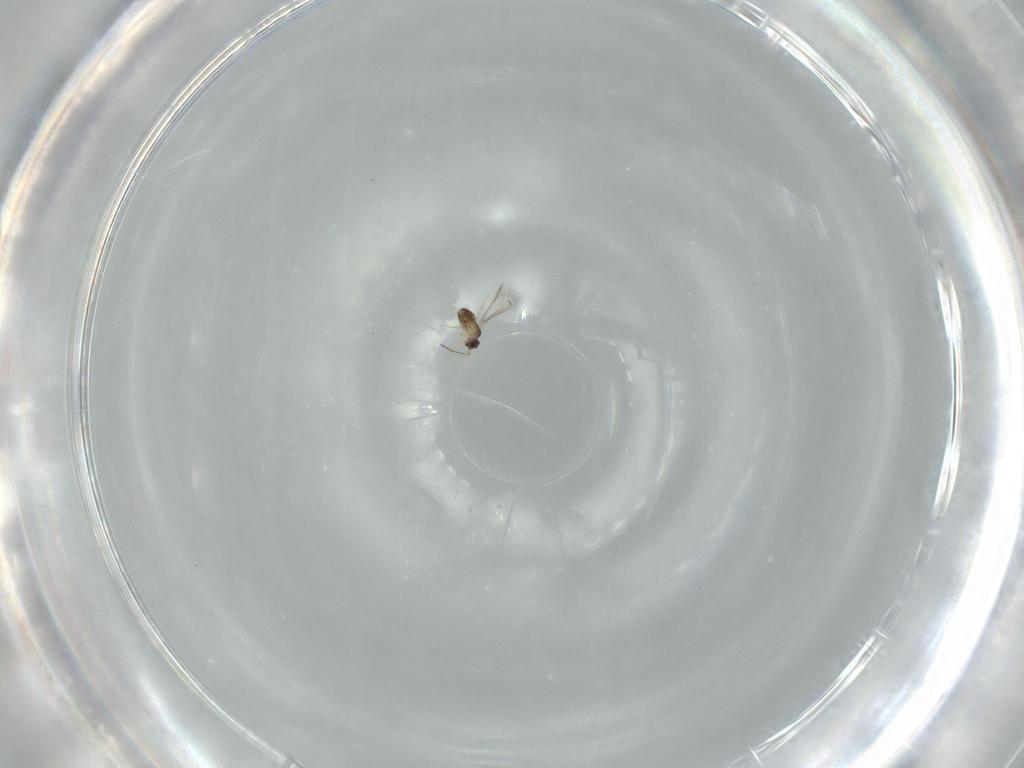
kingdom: Animalia
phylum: Arthropoda
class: Insecta
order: Hymenoptera
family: Mymaridae
